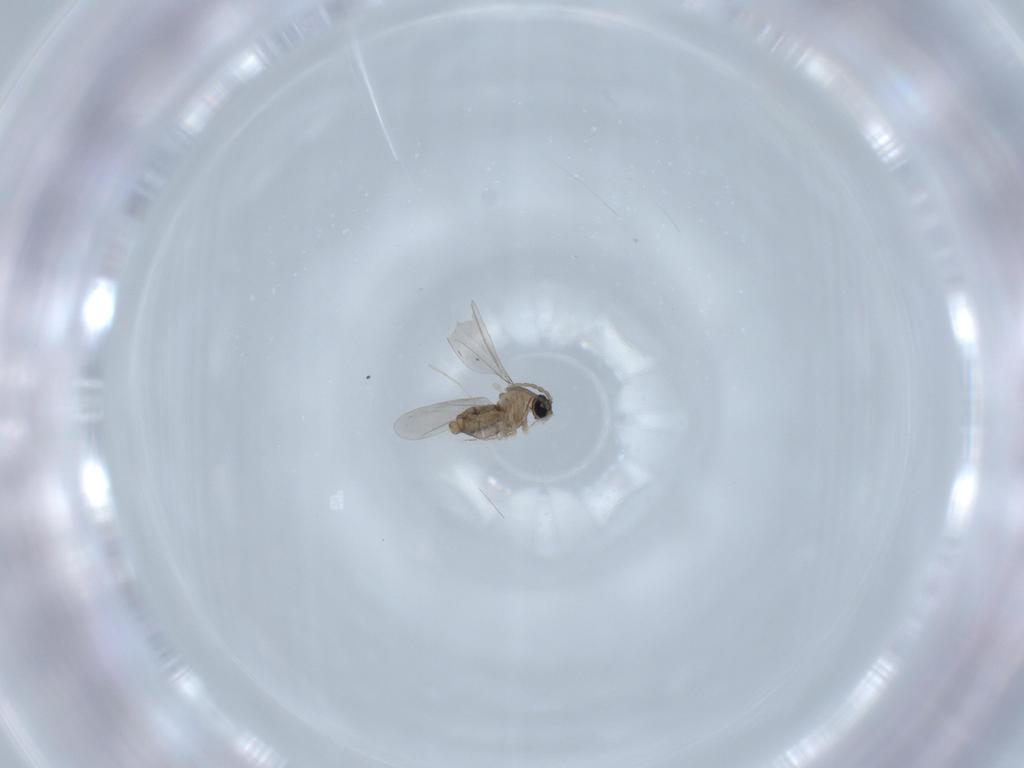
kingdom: Animalia
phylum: Arthropoda
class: Insecta
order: Diptera
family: Cecidomyiidae
